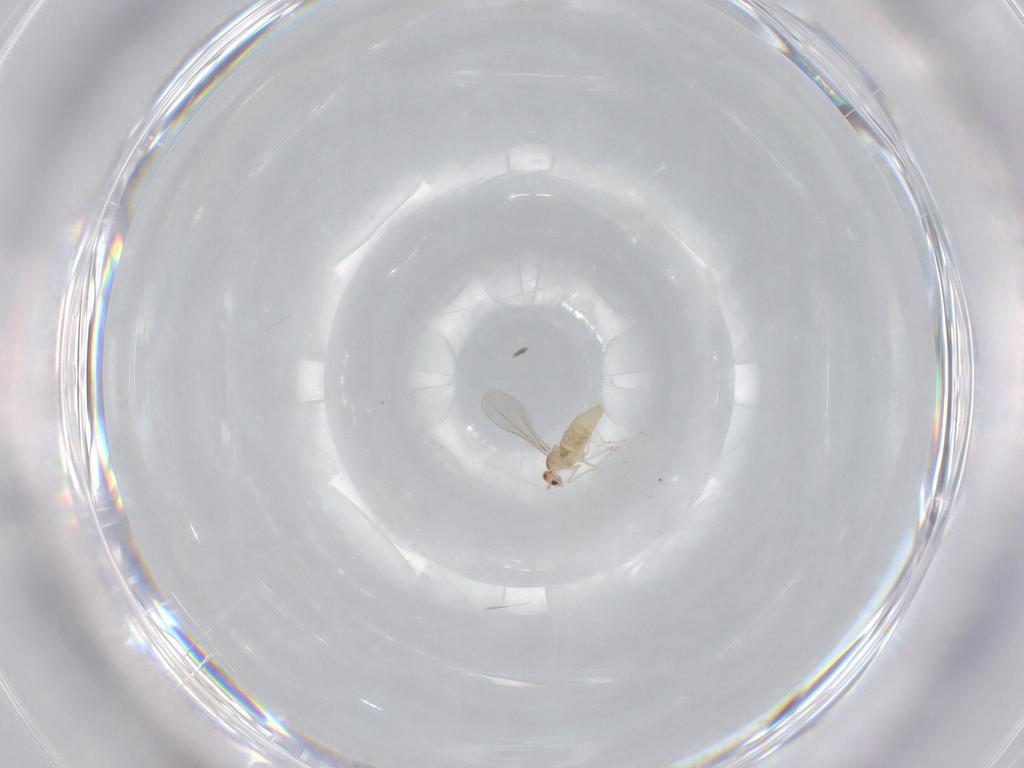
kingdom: Animalia
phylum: Arthropoda
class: Insecta
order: Diptera
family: Cecidomyiidae
